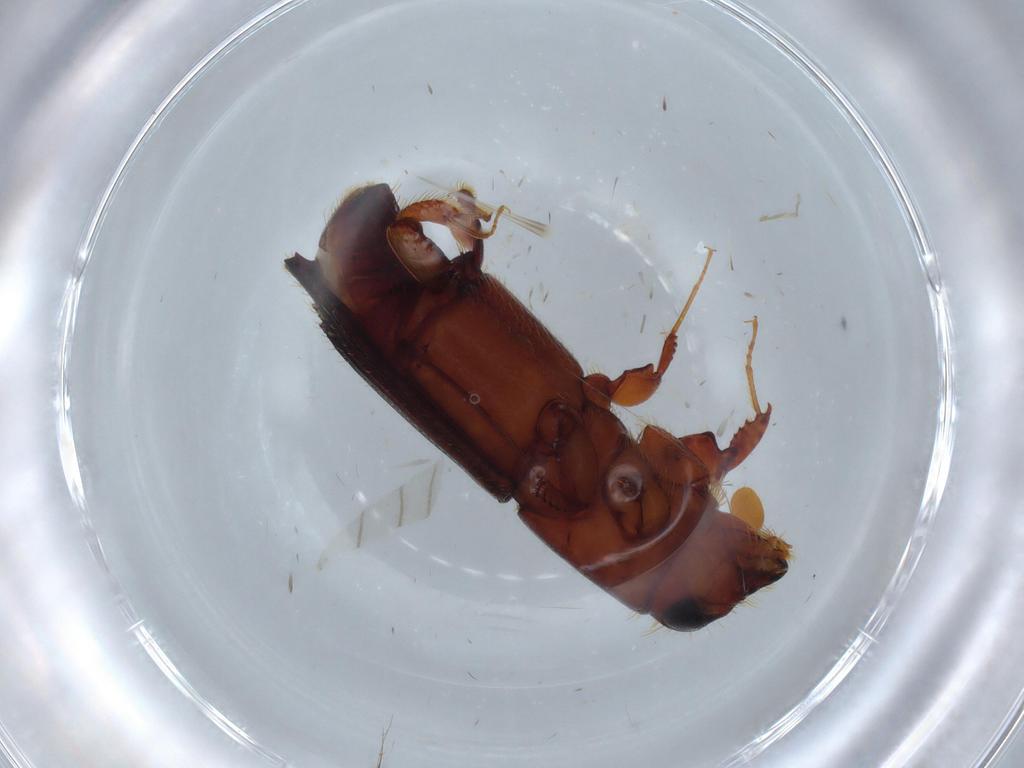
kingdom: Animalia
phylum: Arthropoda
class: Insecta
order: Coleoptera
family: Curculionidae
